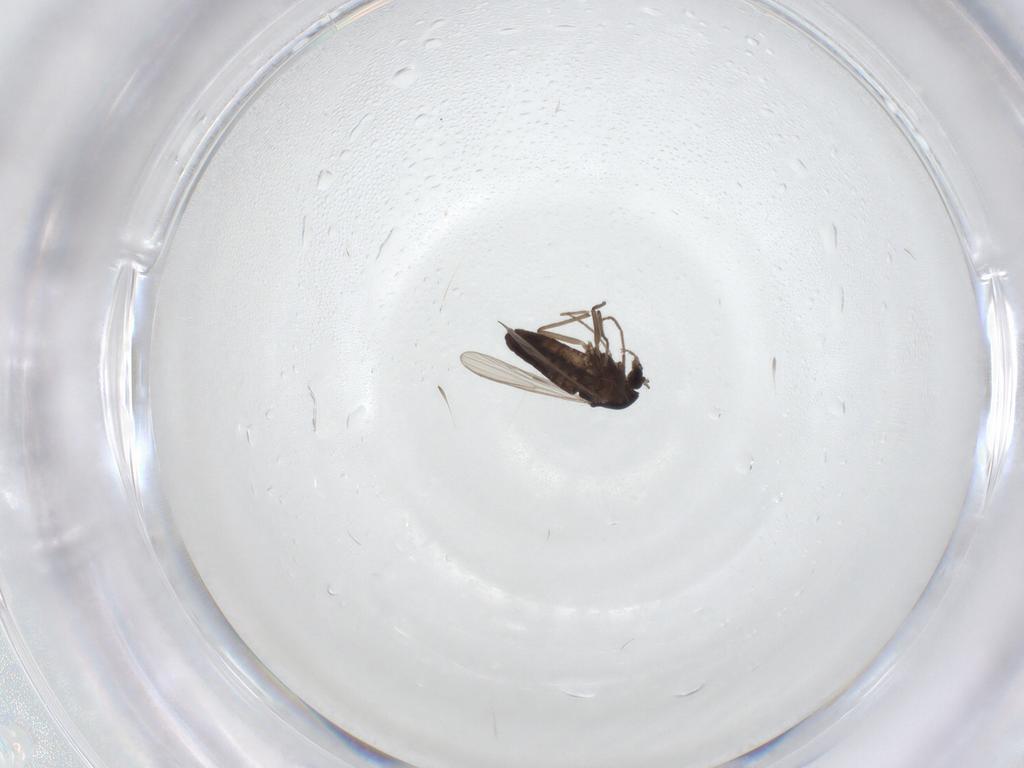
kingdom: Animalia
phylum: Arthropoda
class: Insecta
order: Diptera
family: Chironomidae
